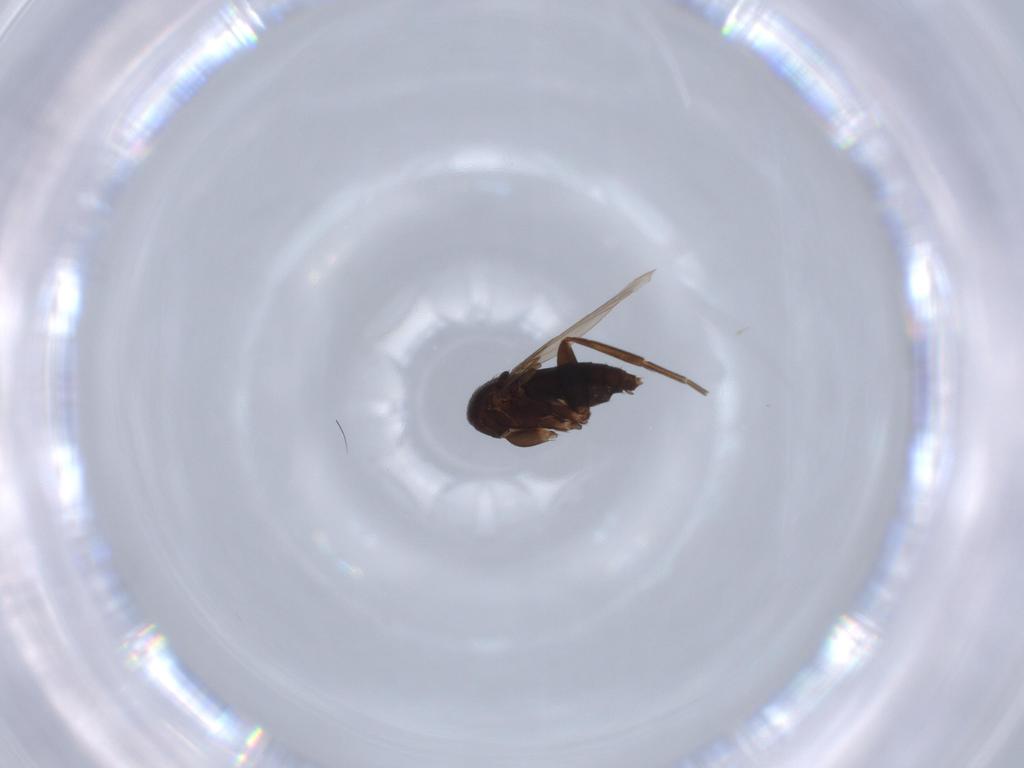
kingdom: Animalia
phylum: Arthropoda
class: Insecta
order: Diptera
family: Phoridae
